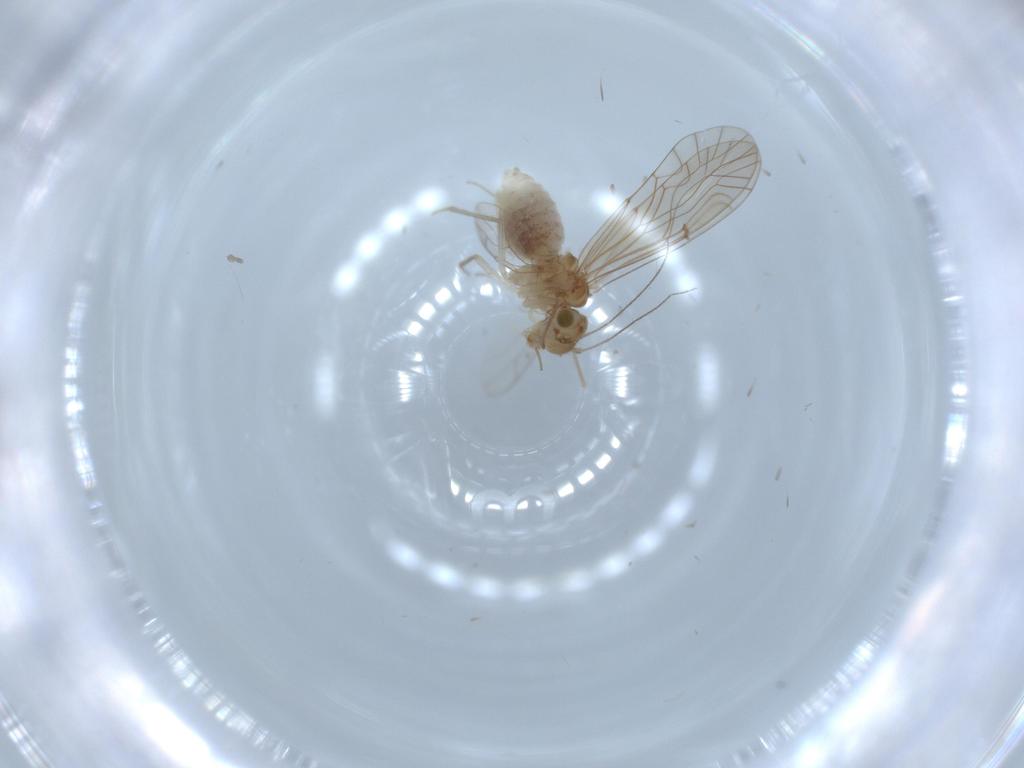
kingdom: Animalia
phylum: Arthropoda
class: Insecta
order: Psocodea
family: Lachesillidae
